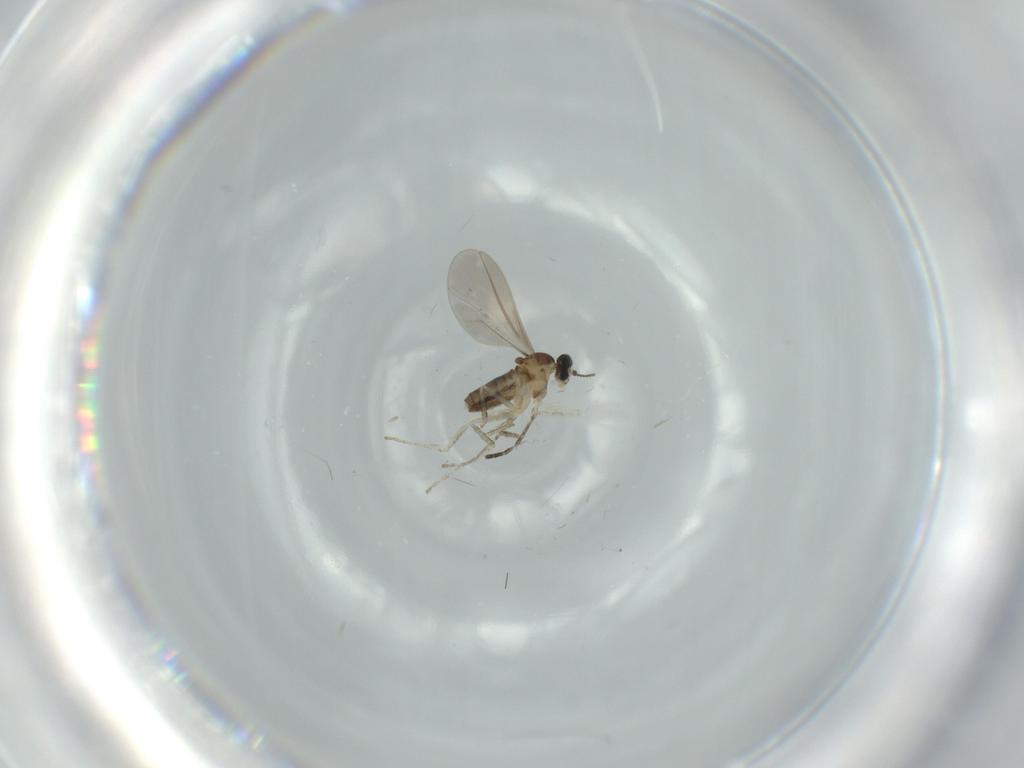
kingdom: Animalia
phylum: Arthropoda
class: Insecta
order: Diptera
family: Cecidomyiidae
